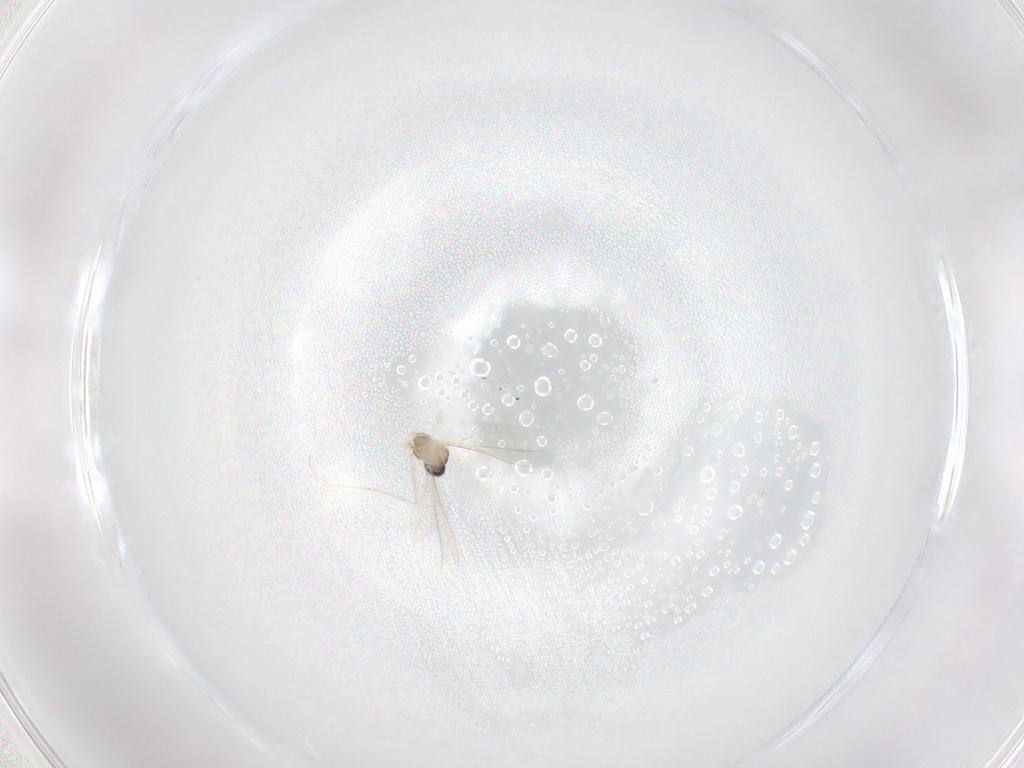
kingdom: Animalia
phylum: Arthropoda
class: Insecta
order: Diptera
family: Cecidomyiidae
